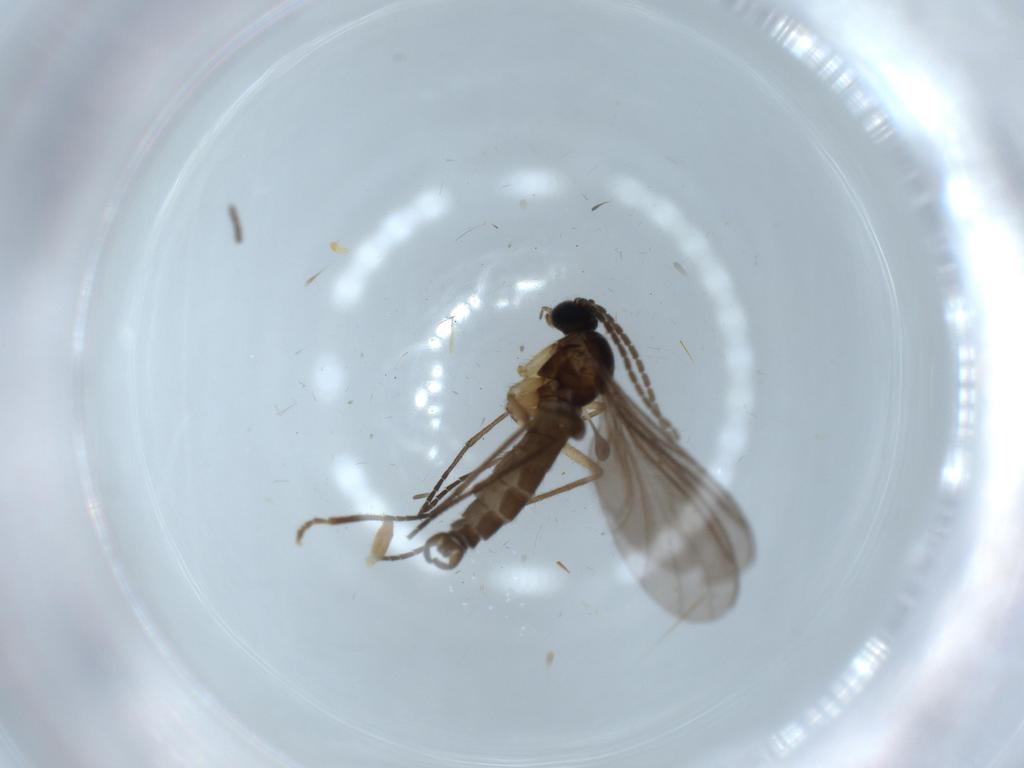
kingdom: Animalia
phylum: Arthropoda
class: Insecta
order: Diptera
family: Sciaridae
